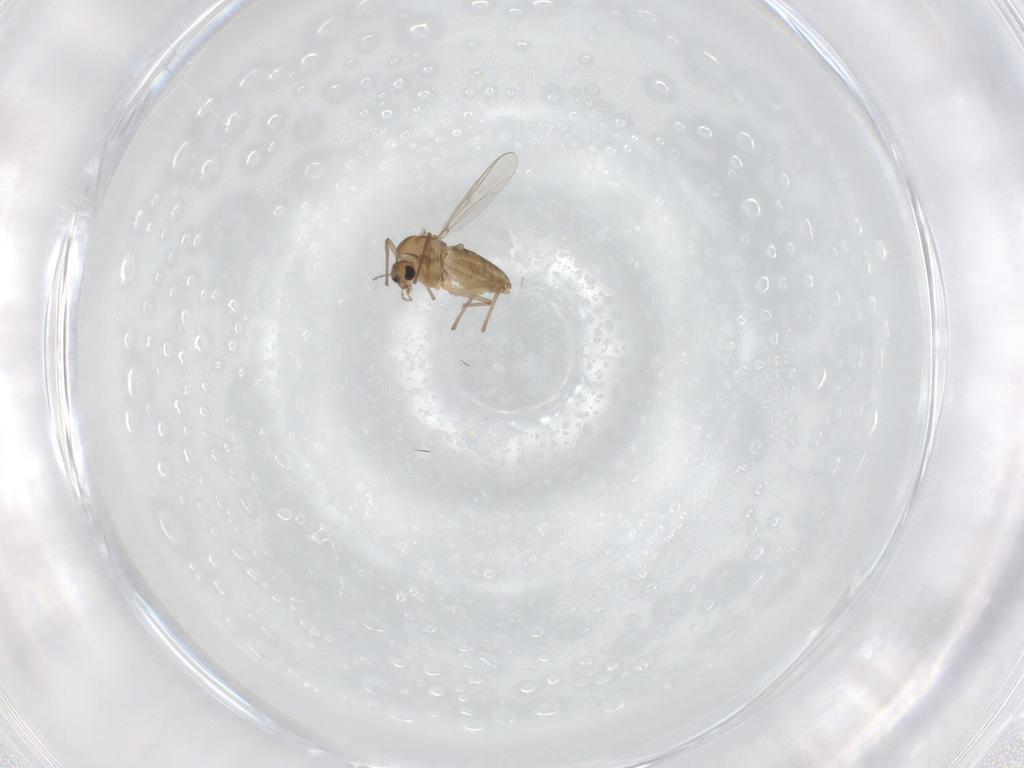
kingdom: Animalia
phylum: Arthropoda
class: Insecta
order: Diptera
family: Chironomidae
